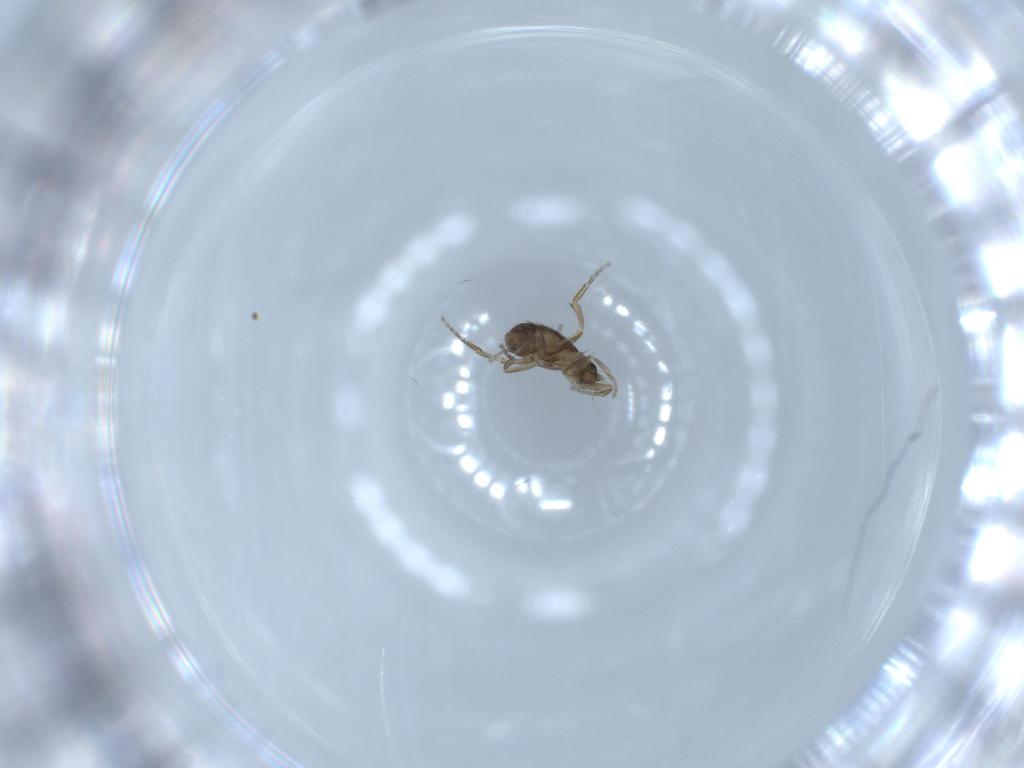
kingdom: Animalia
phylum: Arthropoda
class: Insecta
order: Diptera
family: Phoridae
